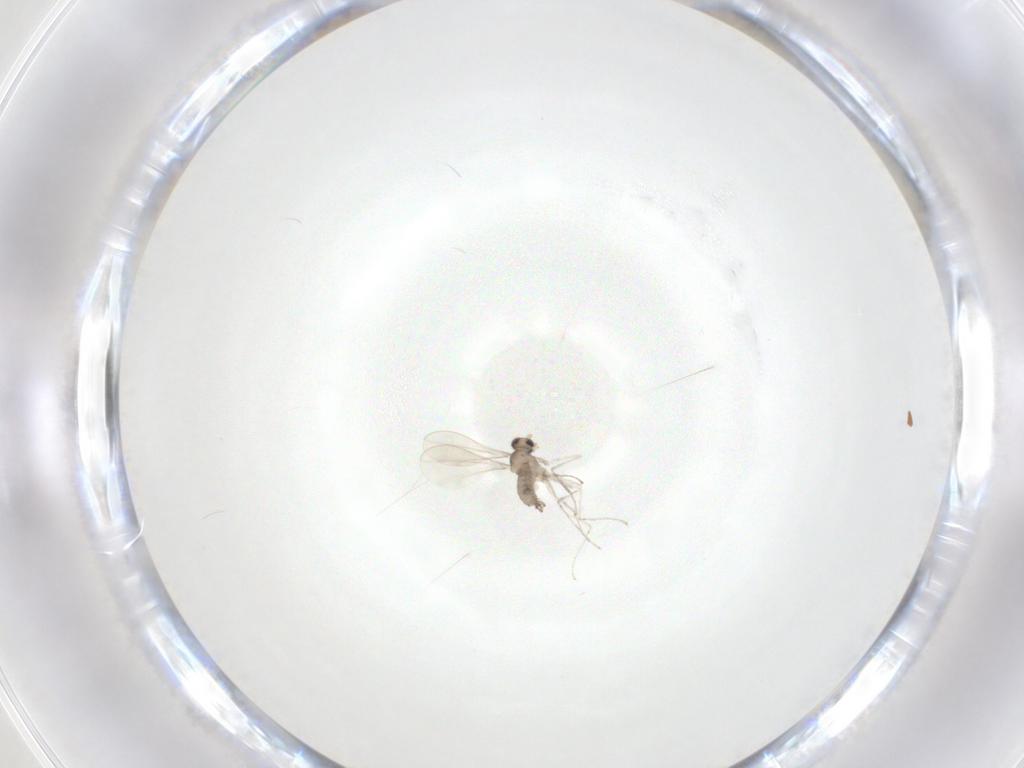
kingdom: Animalia
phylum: Arthropoda
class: Insecta
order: Diptera
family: Cecidomyiidae
